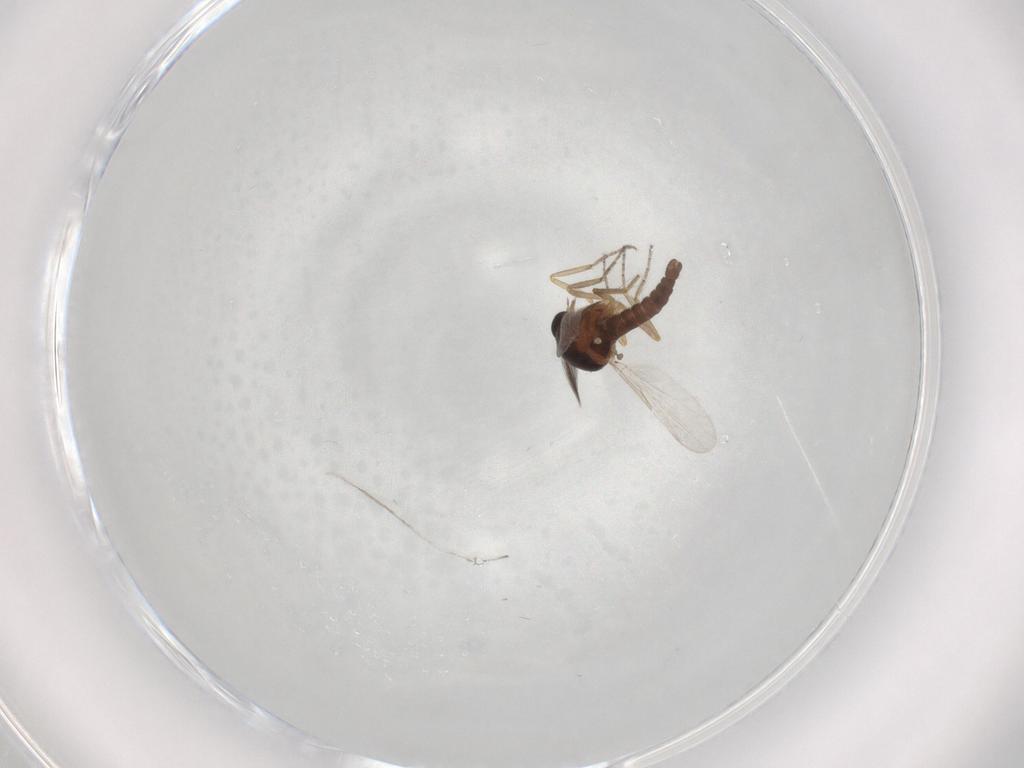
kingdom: Animalia
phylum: Arthropoda
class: Insecta
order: Diptera
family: Ceratopogonidae
